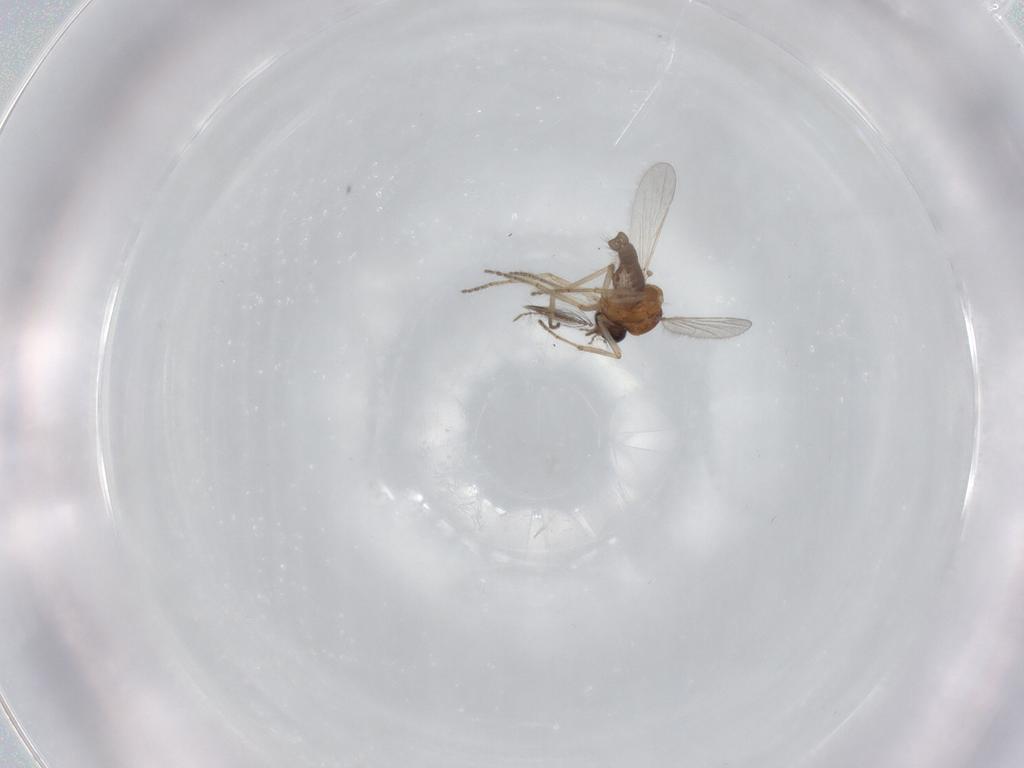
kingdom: Animalia
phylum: Arthropoda
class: Insecta
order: Diptera
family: Ceratopogonidae
